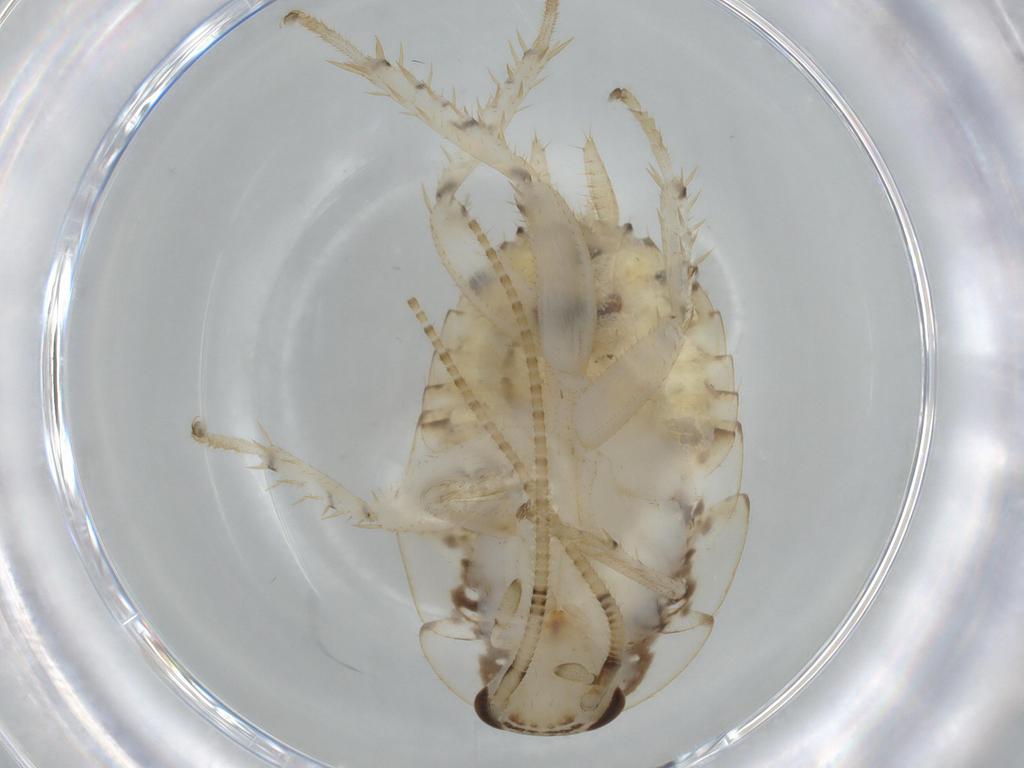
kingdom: Animalia
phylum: Arthropoda
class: Insecta
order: Blattodea
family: Ectobiidae
